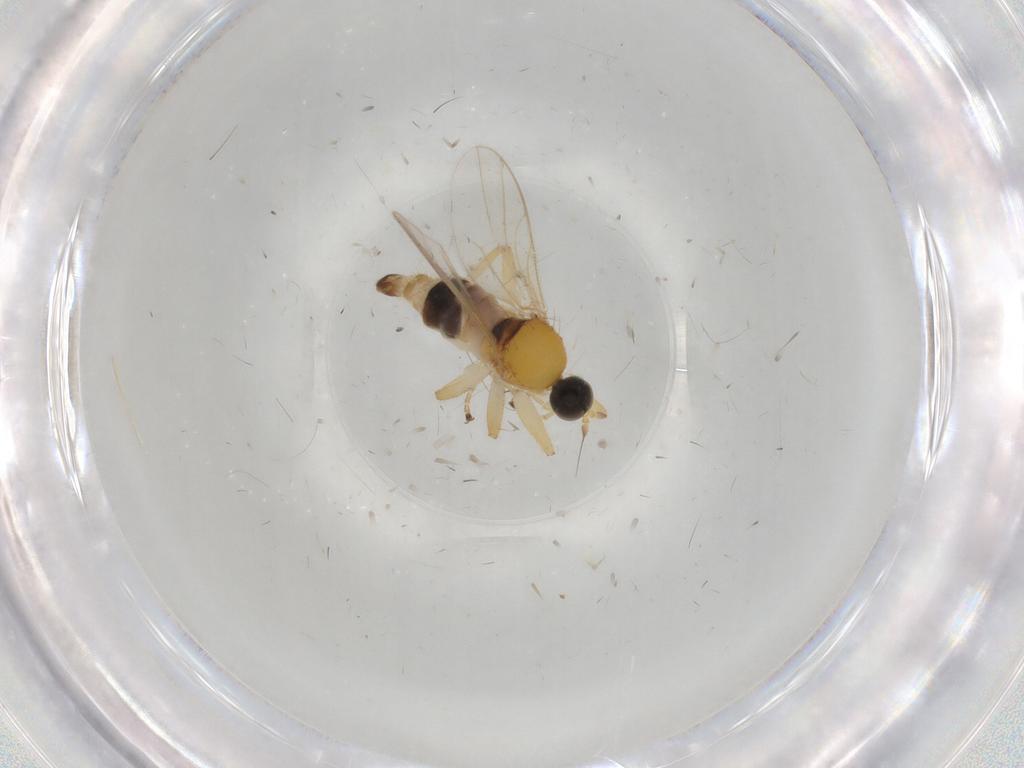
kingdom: Animalia
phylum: Arthropoda
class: Insecta
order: Diptera
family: Hybotidae
